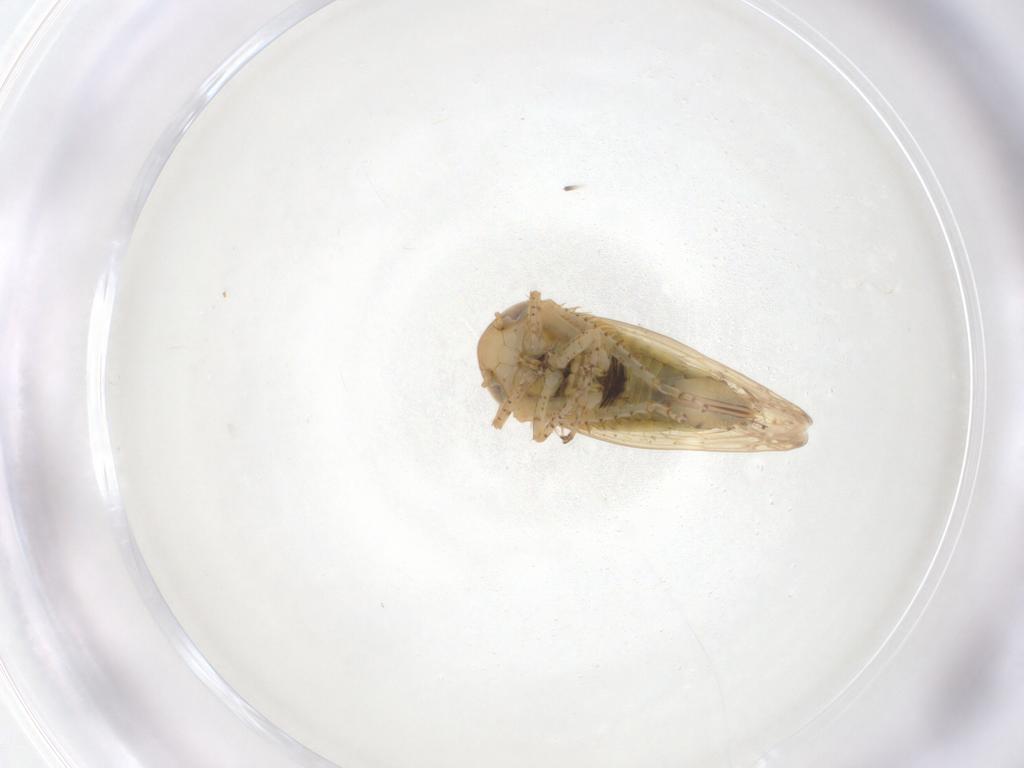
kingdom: Animalia
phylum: Arthropoda
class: Insecta
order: Hemiptera
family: Cicadellidae
